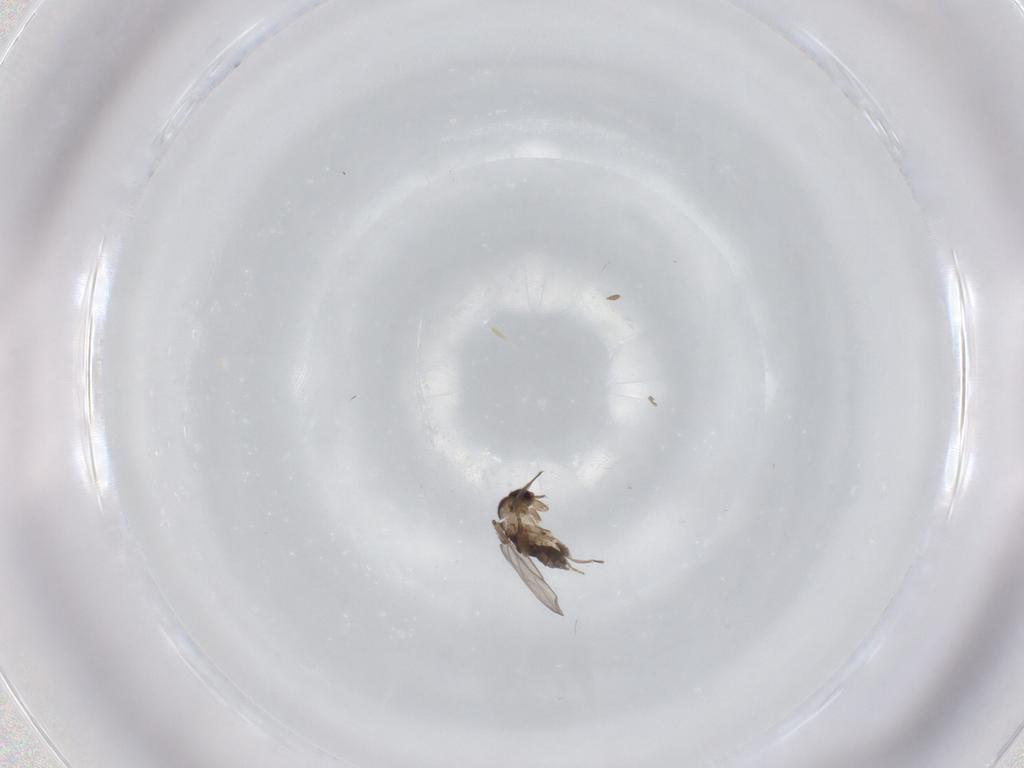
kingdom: Animalia
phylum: Arthropoda
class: Insecta
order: Diptera
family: Phoridae
